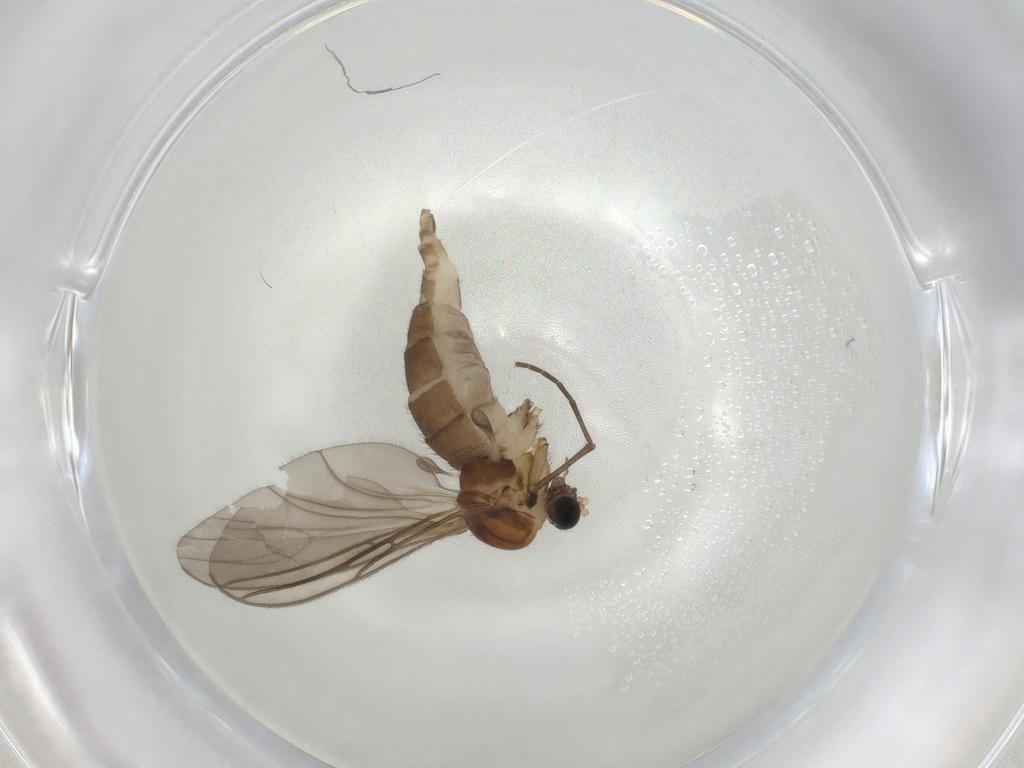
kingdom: Animalia
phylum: Arthropoda
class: Insecta
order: Diptera
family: Sciaridae
